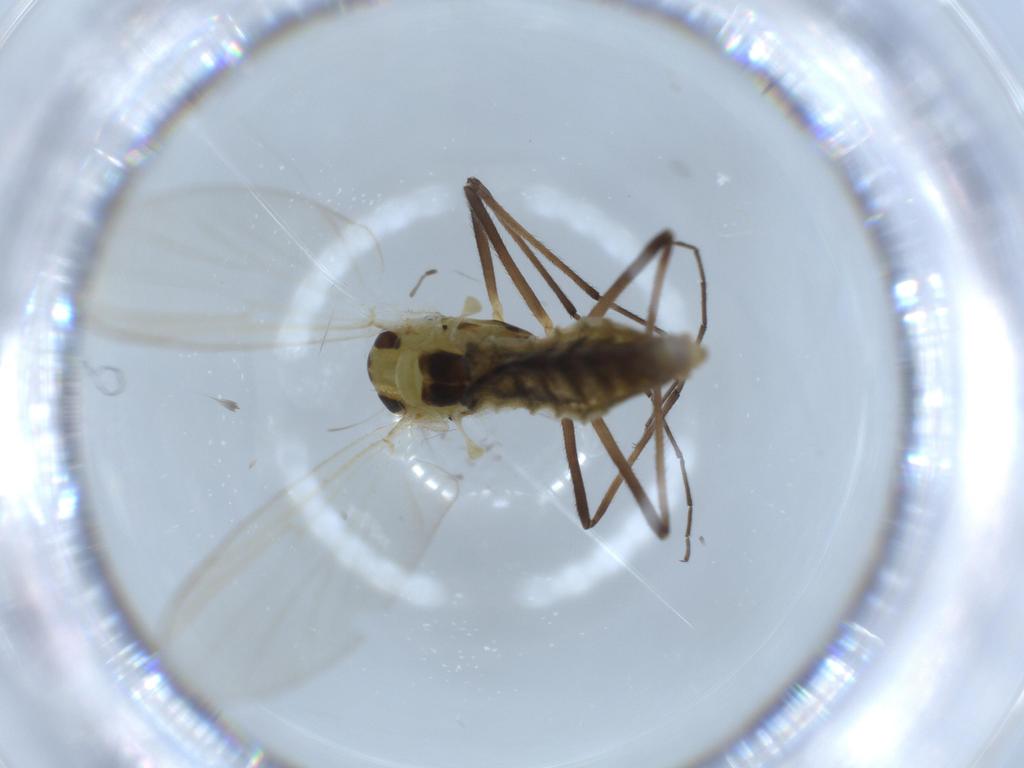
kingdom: Animalia
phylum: Arthropoda
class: Insecta
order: Diptera
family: Chironomidae
